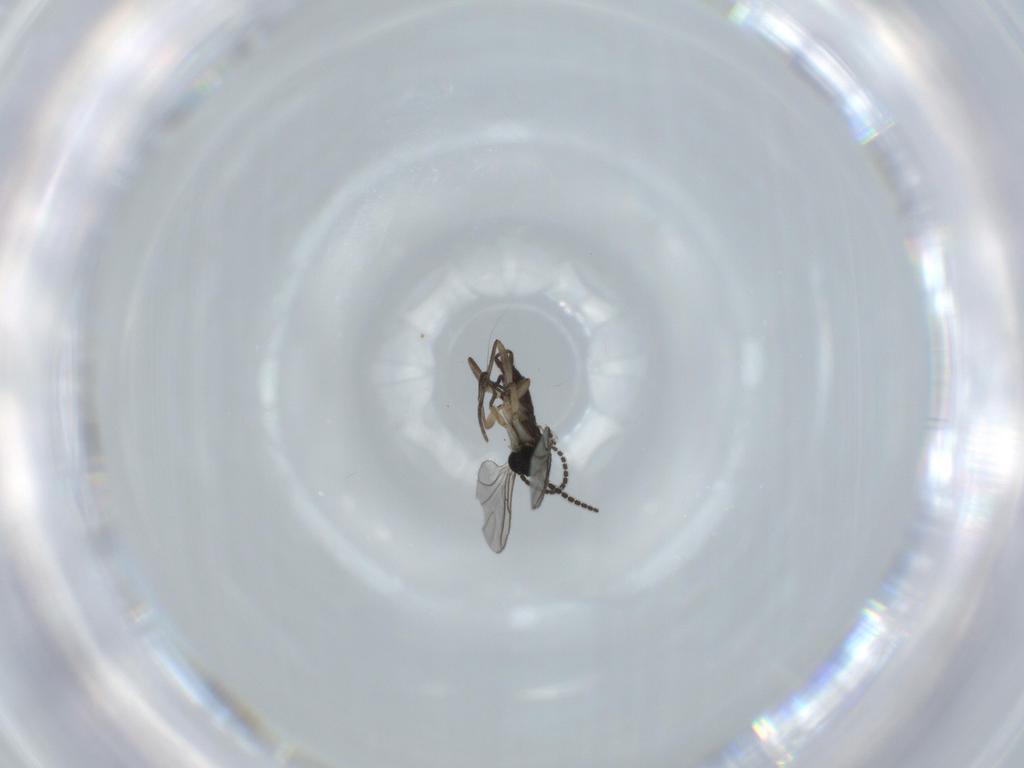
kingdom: Animalia
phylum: Arthropoda
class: Insecta
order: Diptera
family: Sciaridae
